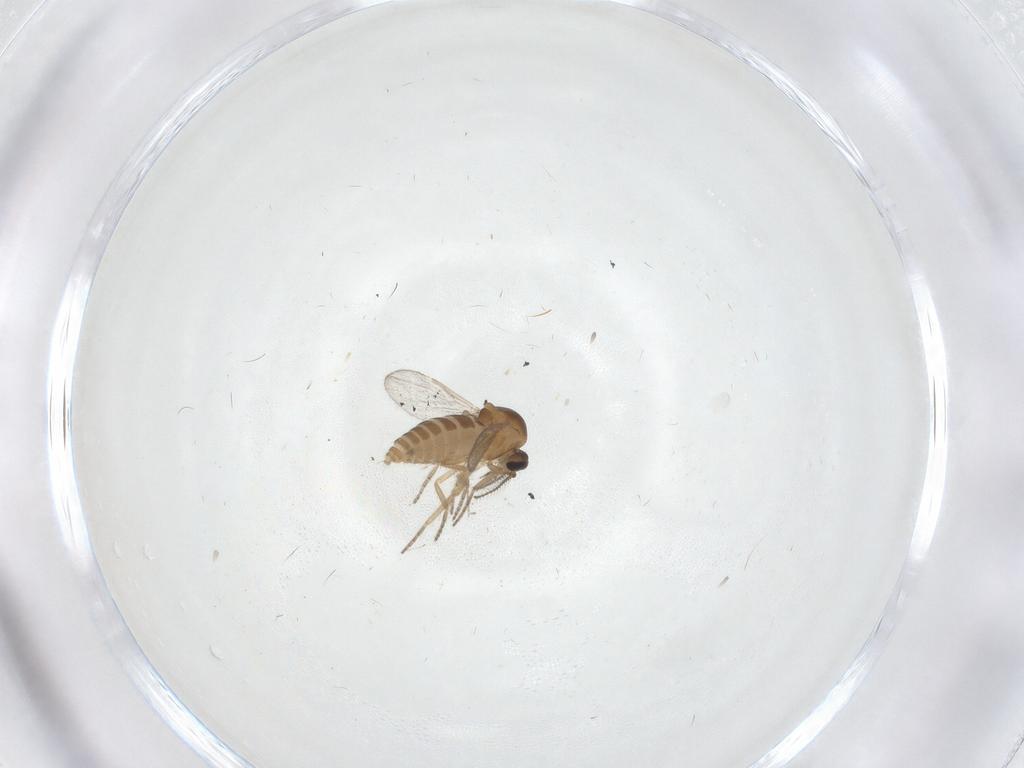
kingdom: Animalia
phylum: Arthropoda
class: Insecta
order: Diptera
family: Ceratopogonidae
